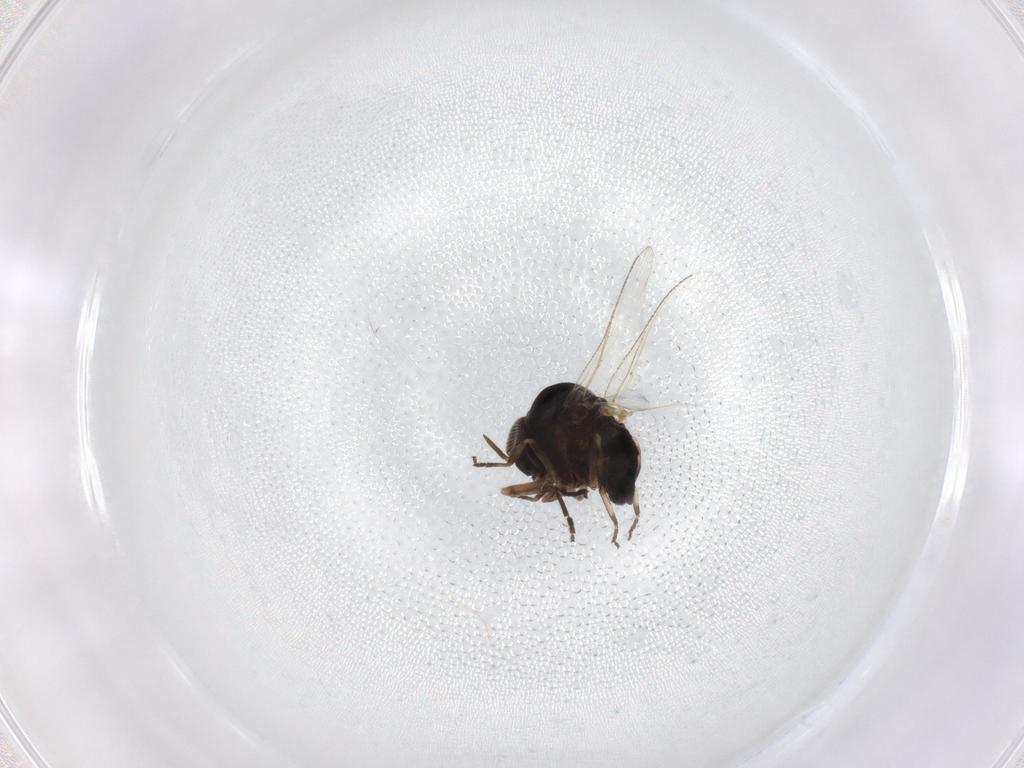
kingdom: Animalia
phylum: Arthropoda
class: Insecta
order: Diptera
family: Simuliidae
